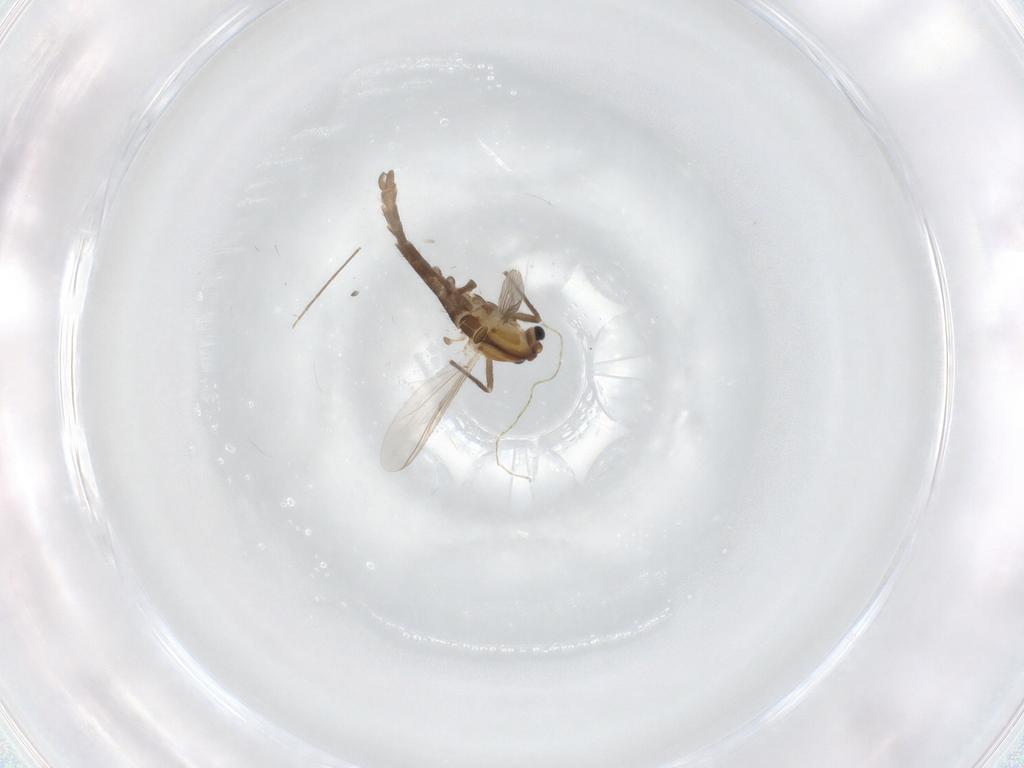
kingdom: Animalia
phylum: Arthropoda
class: Insecta
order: Diptera
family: Chironomidae
